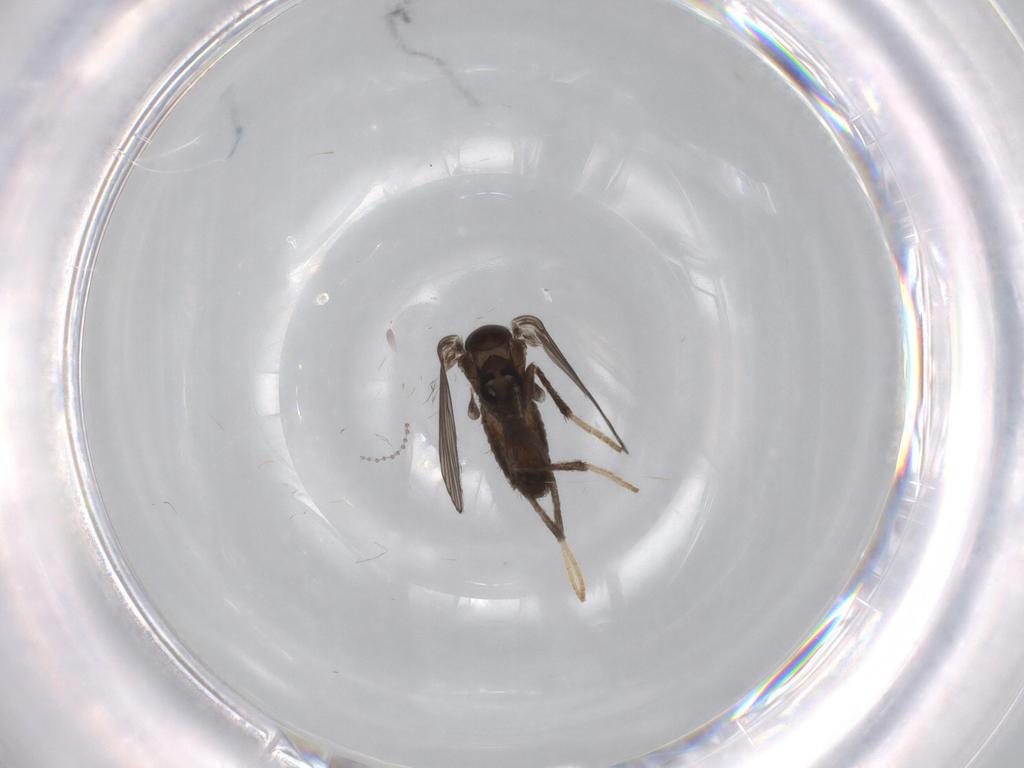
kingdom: Animalia
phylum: Arthropoda
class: Insecta
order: Diptera
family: Psychodidae
